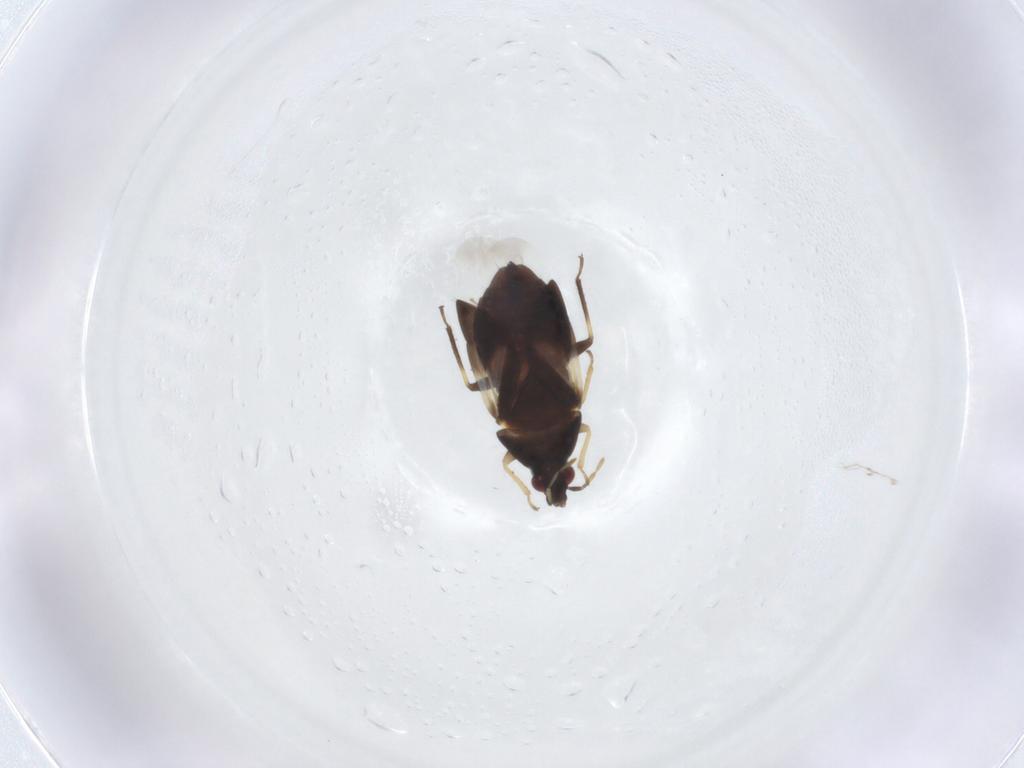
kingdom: Animalia
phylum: Arthropoda
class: Insecta
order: Hemiptera
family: Anthocoridae
